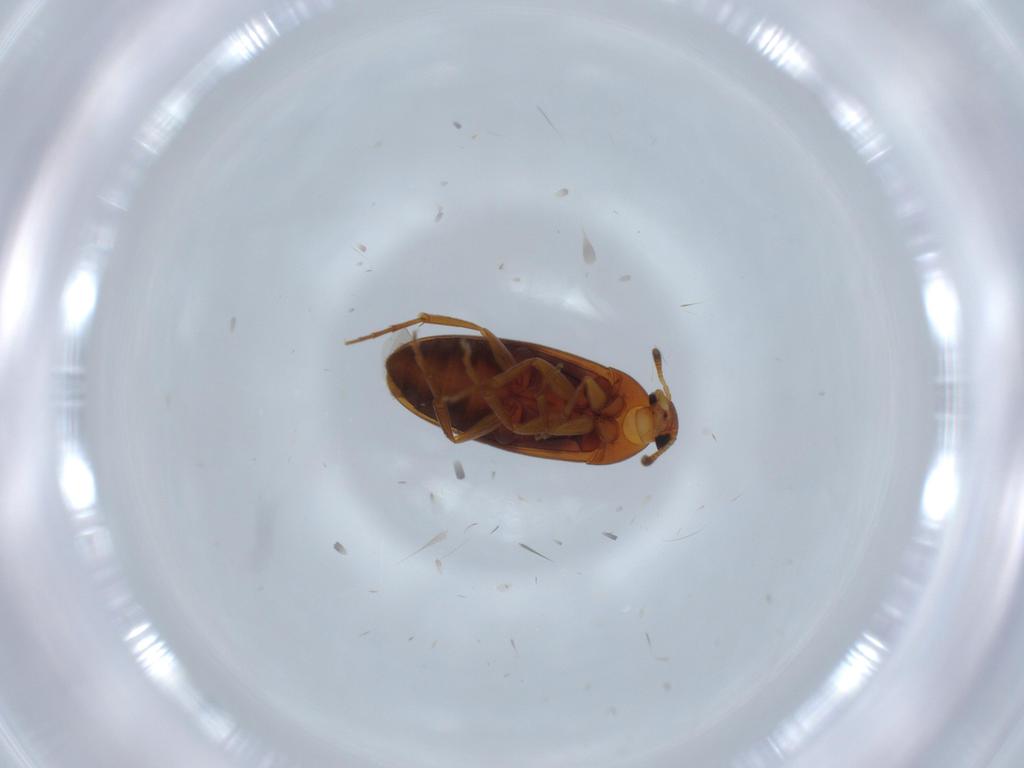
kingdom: Animalia
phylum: Arthropoda
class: Insecta
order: Coleoptera
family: Scraptiidae
